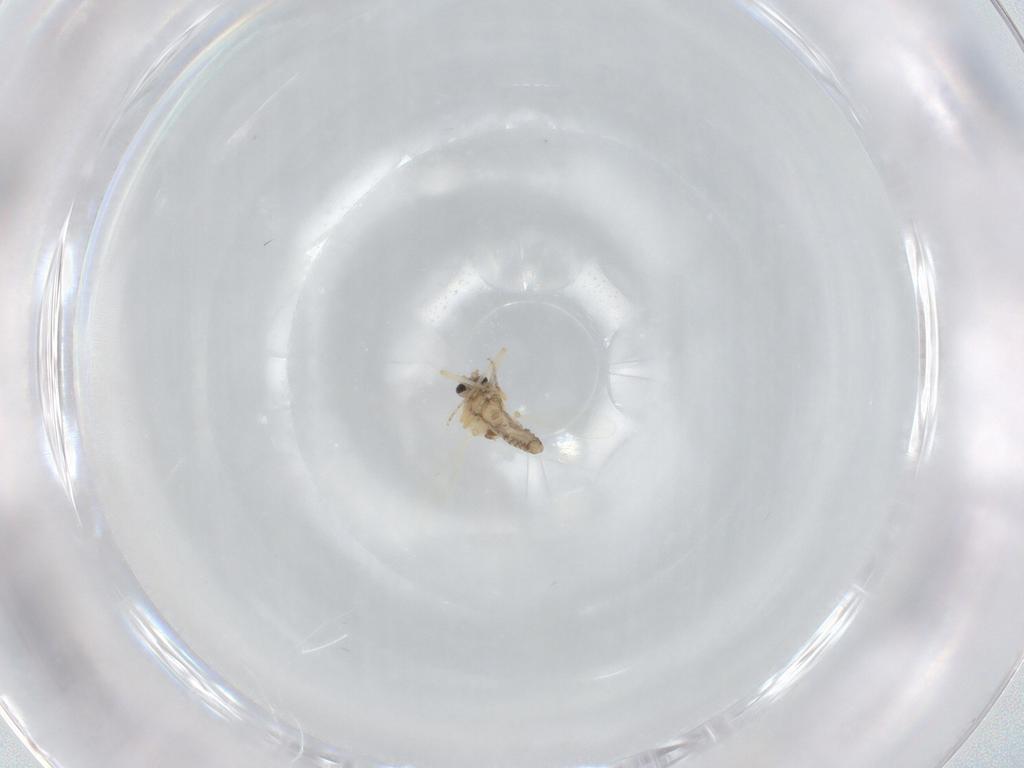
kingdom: Animalia
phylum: Arthropoda
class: Insecta
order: Diptera
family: Ceratopogonidae
